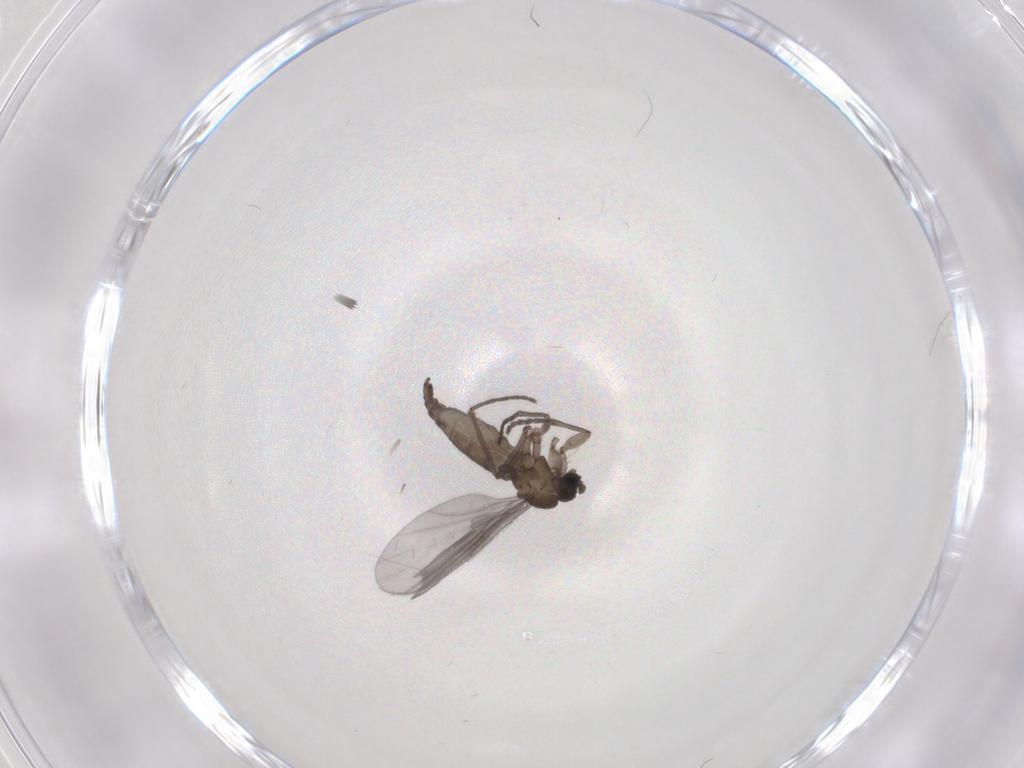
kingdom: Animalia
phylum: Arthropoda
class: Insecta
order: Diptera
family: Sciaridae
